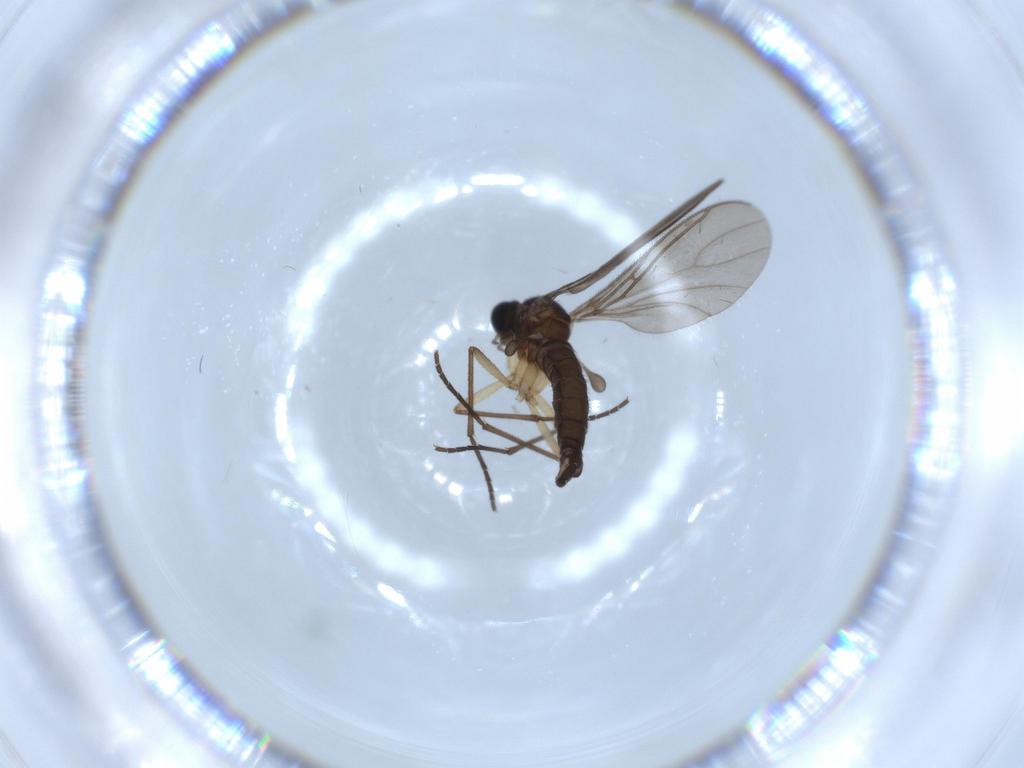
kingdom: Animalia
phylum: Arthropoda
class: Insecta
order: Diptera
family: Sciaridae
